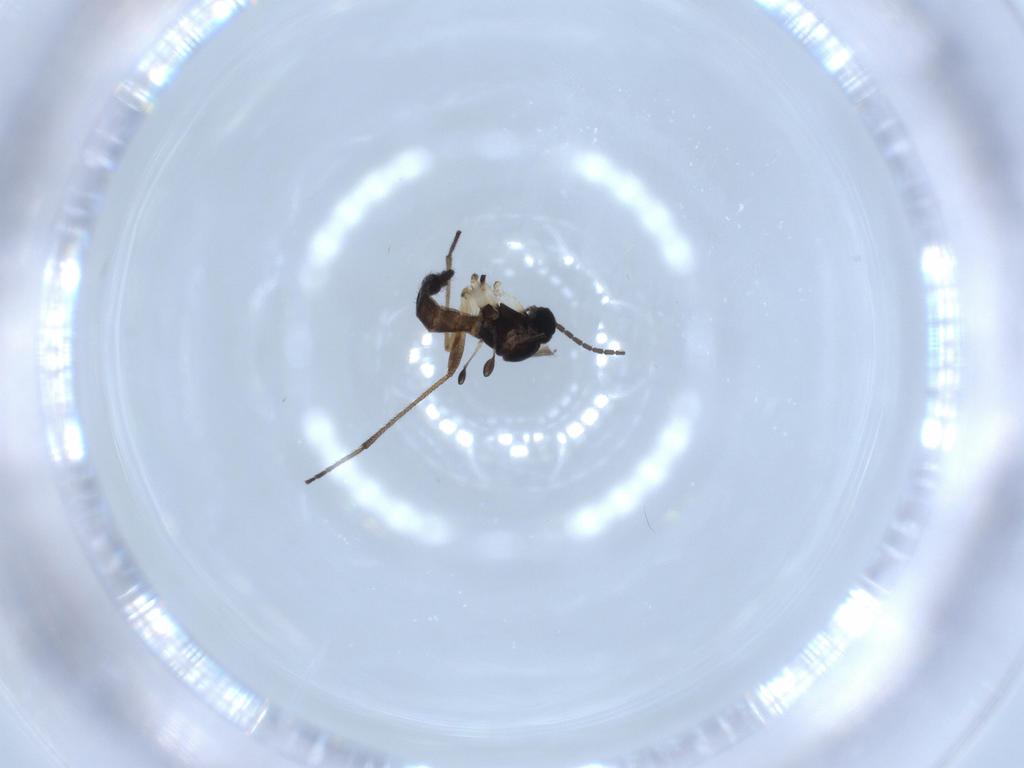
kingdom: Animalia
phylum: Arthropoda
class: Insecta
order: Diptera
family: Sciaridae
